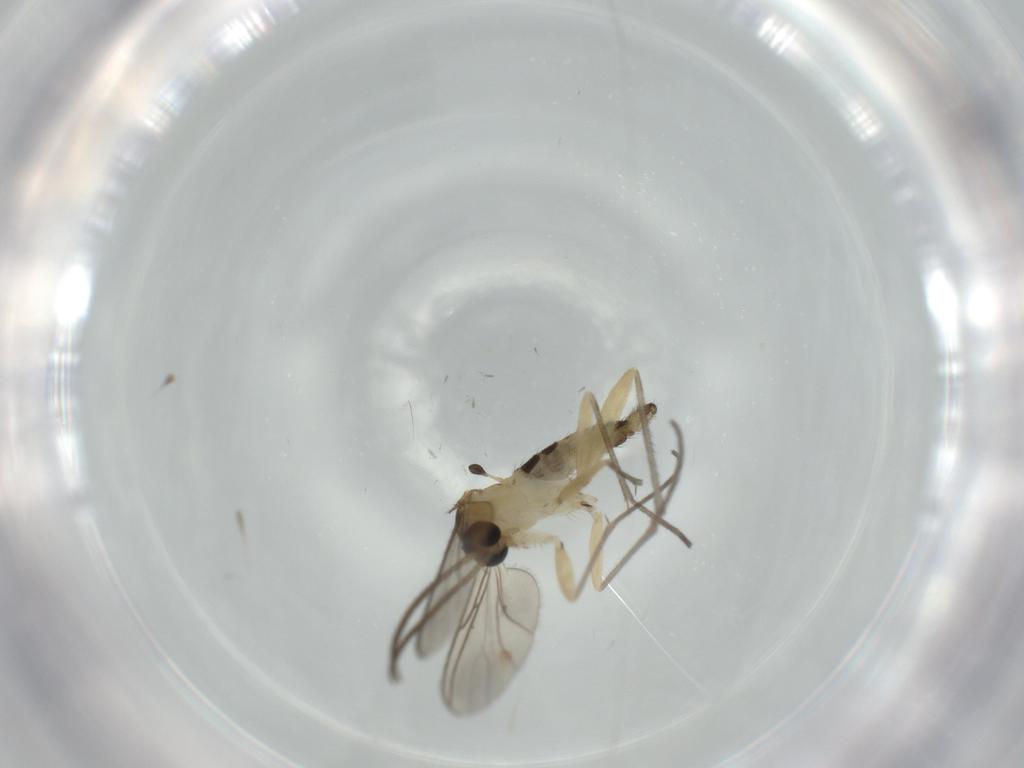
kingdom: Animalia
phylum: Arthropoda
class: Insecta
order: Diptera
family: Sciaridae
